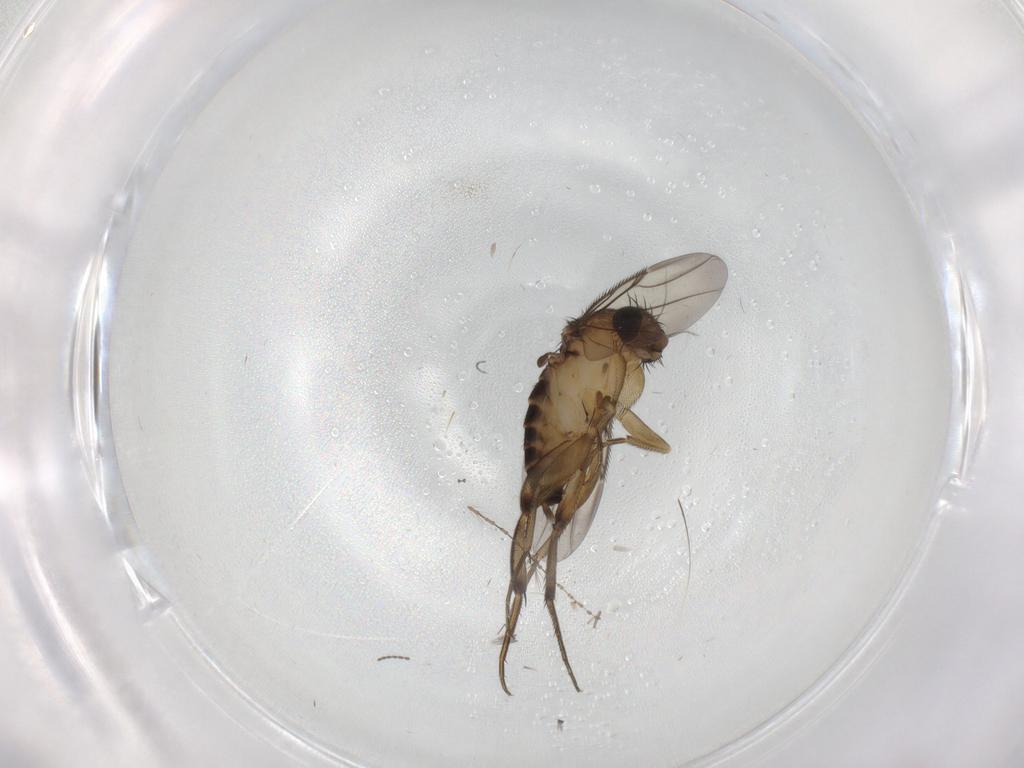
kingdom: Animalia
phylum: Arthropoda
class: Insecta
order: Diptera
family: Phoridae
